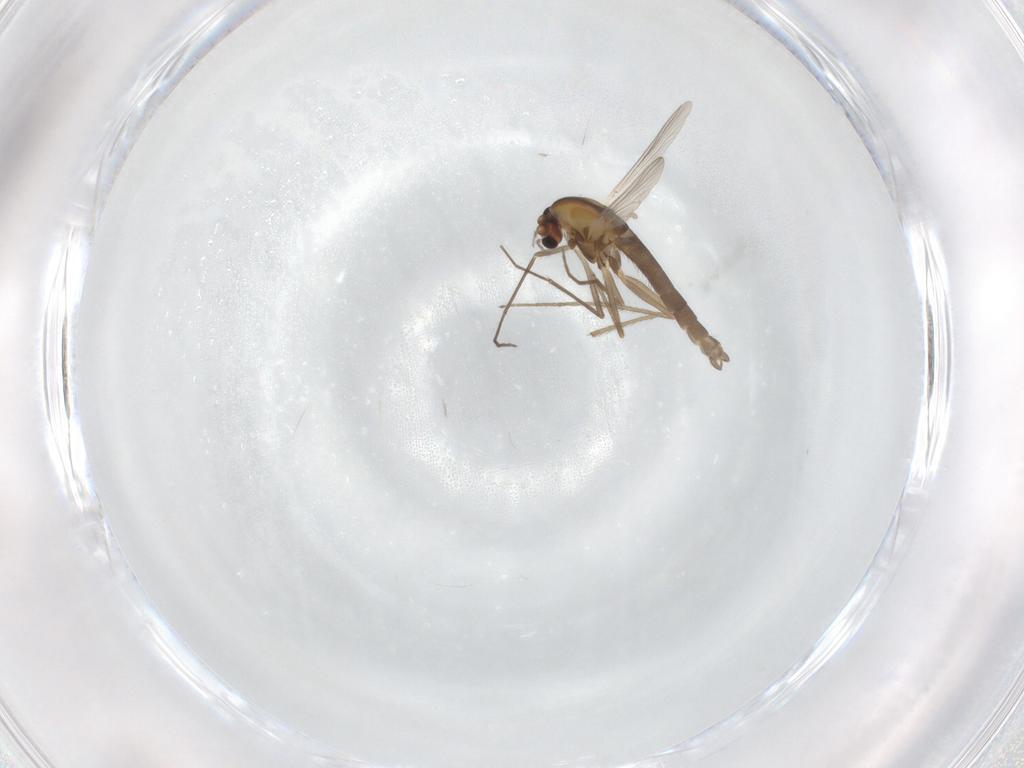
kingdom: Animalia
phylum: Arthropoda
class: Insecta
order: Diptera
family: Chironomidae
